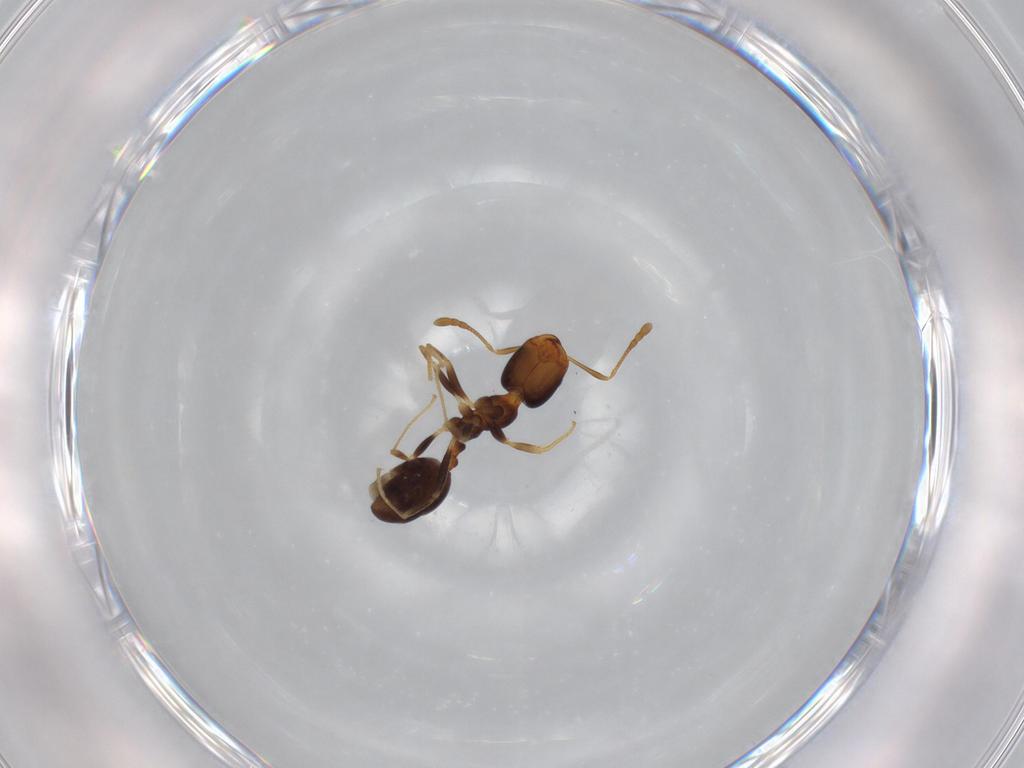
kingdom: Animalia
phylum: Arthropoda
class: Insecta
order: Hymenoptera
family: Formicidae
